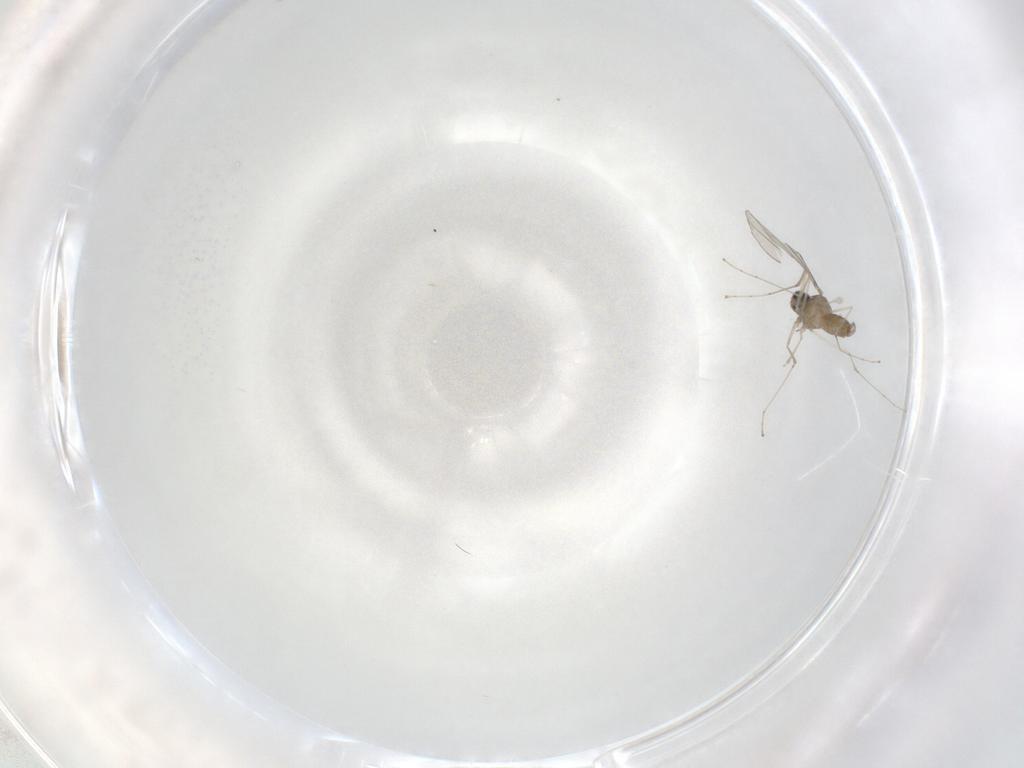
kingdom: Animalia
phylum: Arthropoda
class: Insecta
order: Diptera
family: Cecidomyiidae
